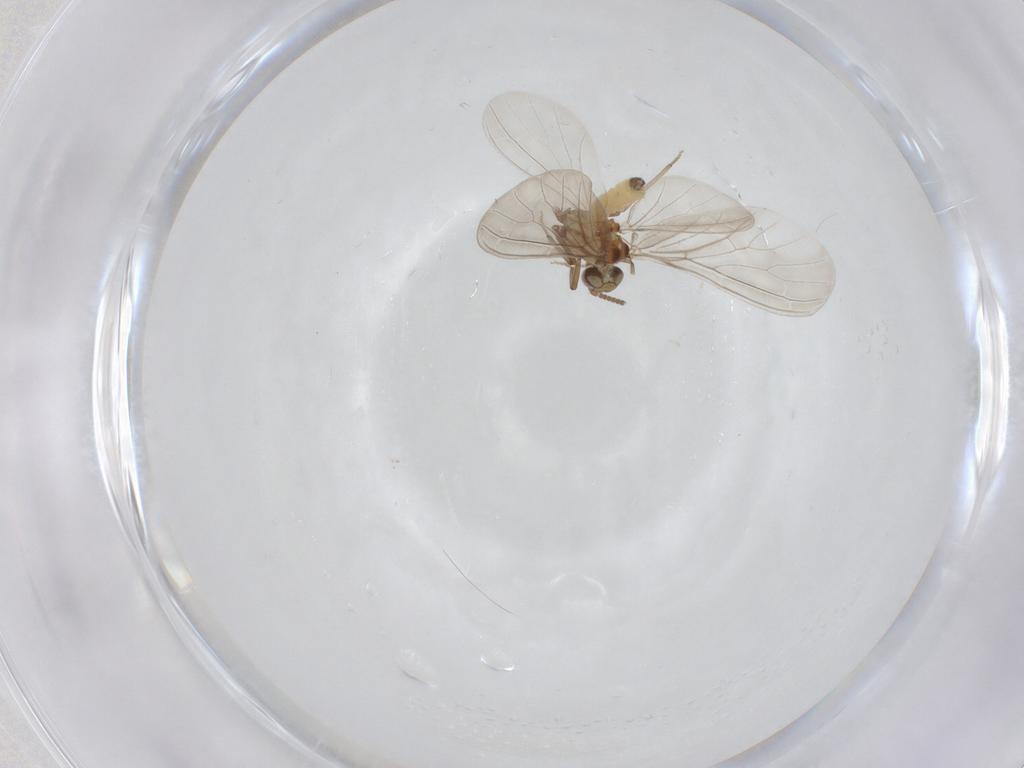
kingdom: Animalia
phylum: Arthropoda
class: Insecta
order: Neuroptera
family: Coniopterygidae
